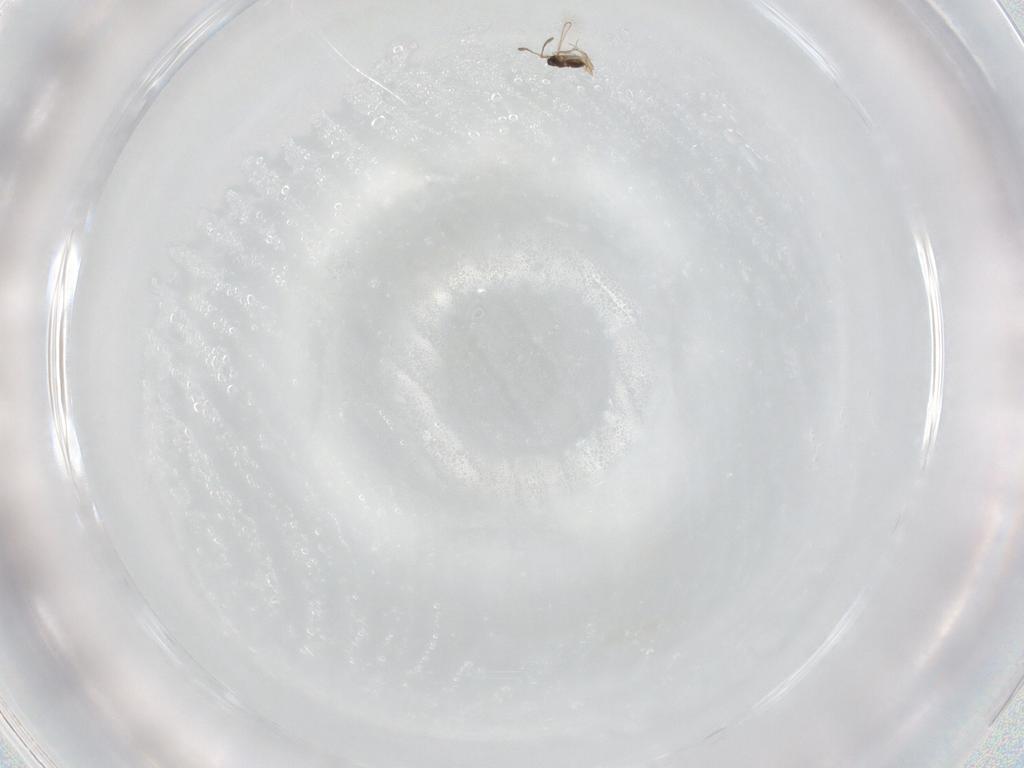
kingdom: Animalia
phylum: Arthropoda
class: Insecta
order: Hymenoptera
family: Mymaridae
